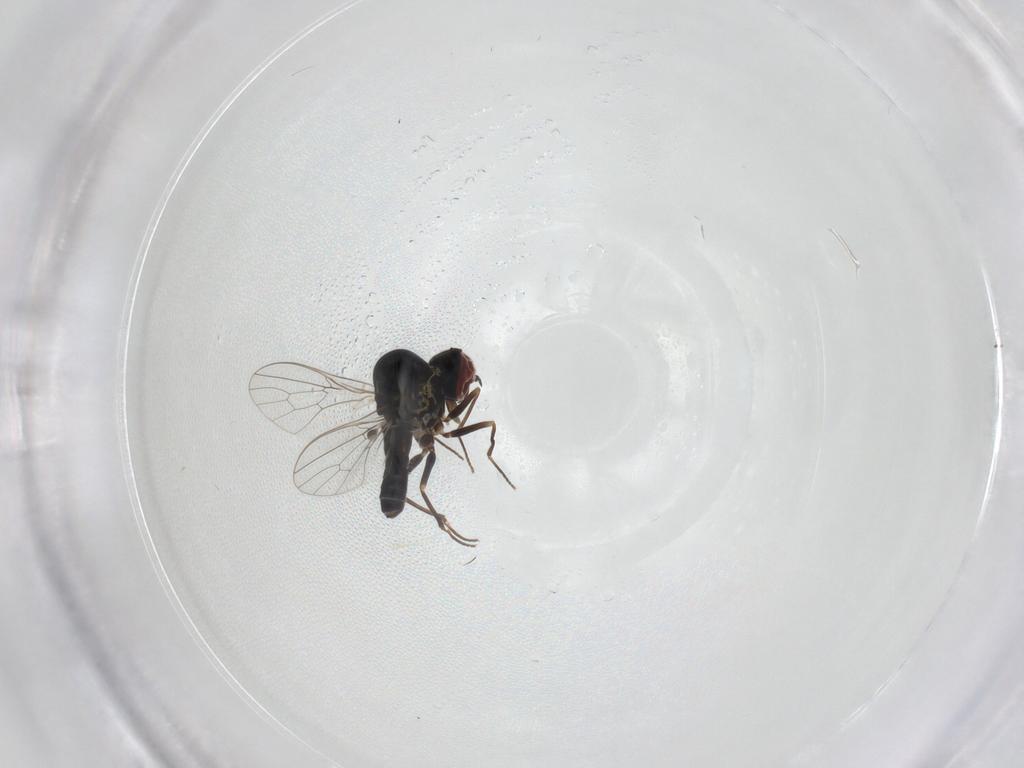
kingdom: Animalia
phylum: Arthropoda
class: Insecta
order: Diptera
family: Mythicomyiidae
